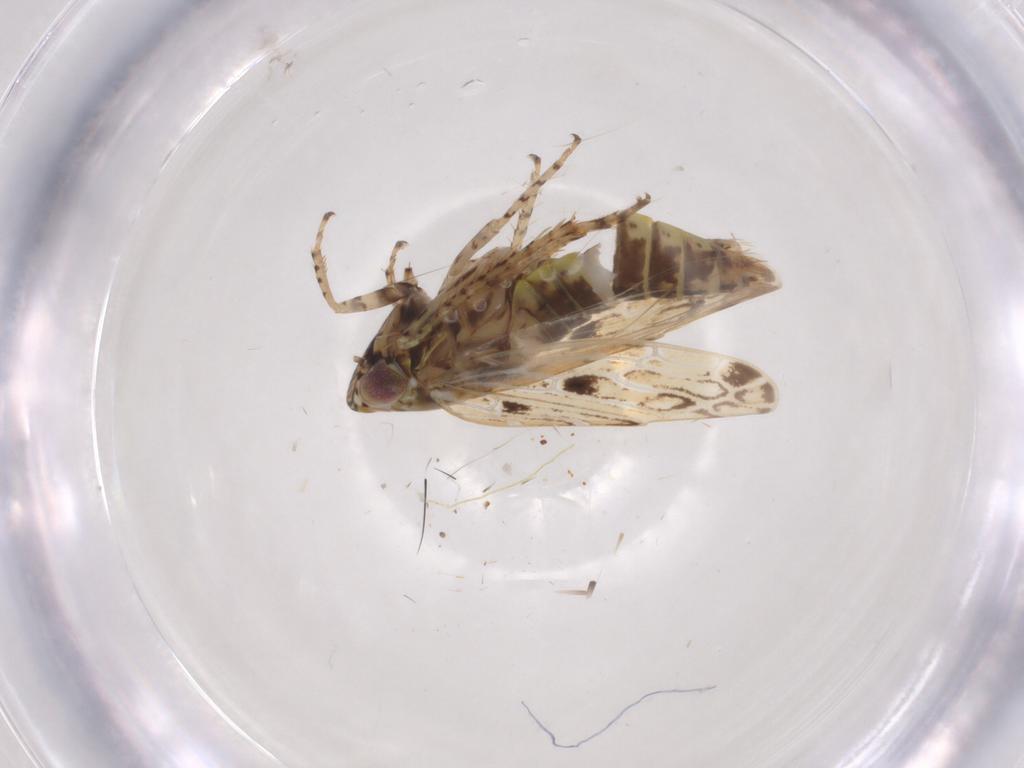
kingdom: Animalia
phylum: Arthropoda
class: Insecta
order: Hemiptera
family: Cicadellidae
